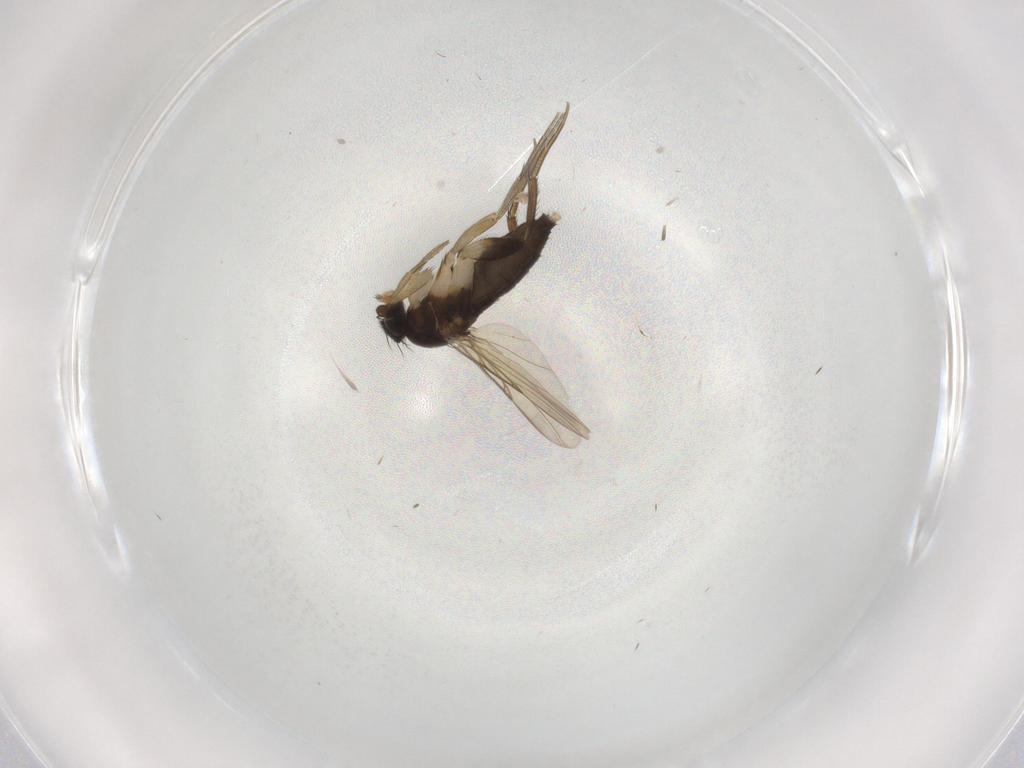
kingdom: Animalia
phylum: Arthropoda
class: Insecta
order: Diptera
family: Phoridae
